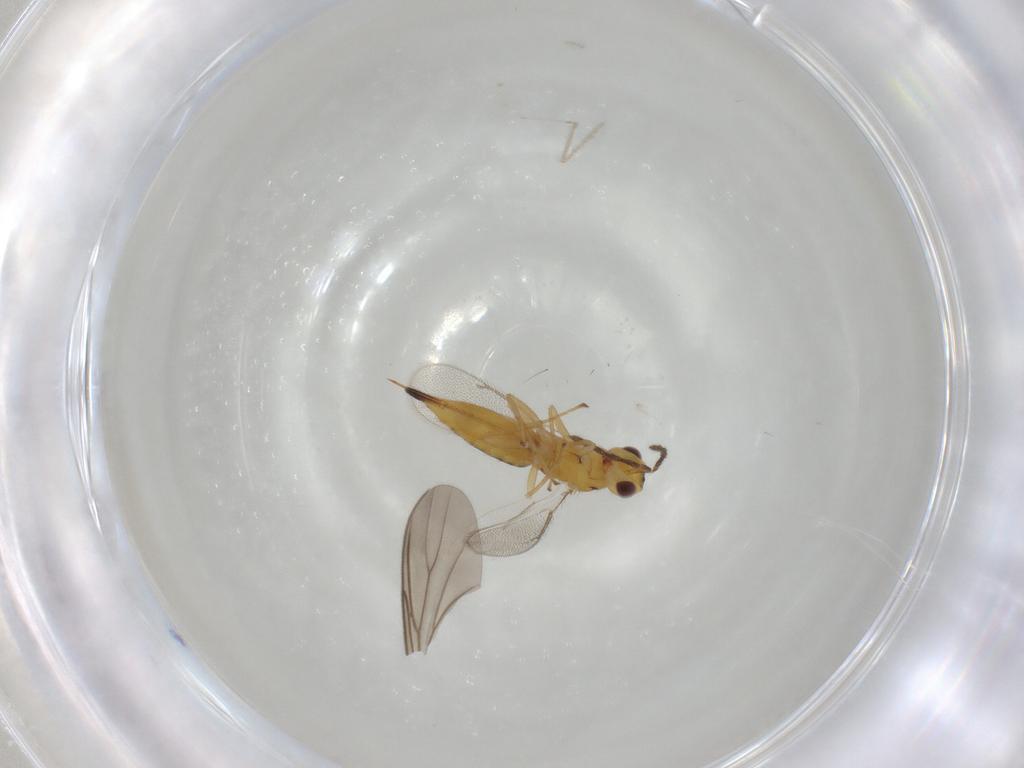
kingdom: Animalia
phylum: Arthropoda
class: Insecta
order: Hymenoptera
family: Eulophidae
